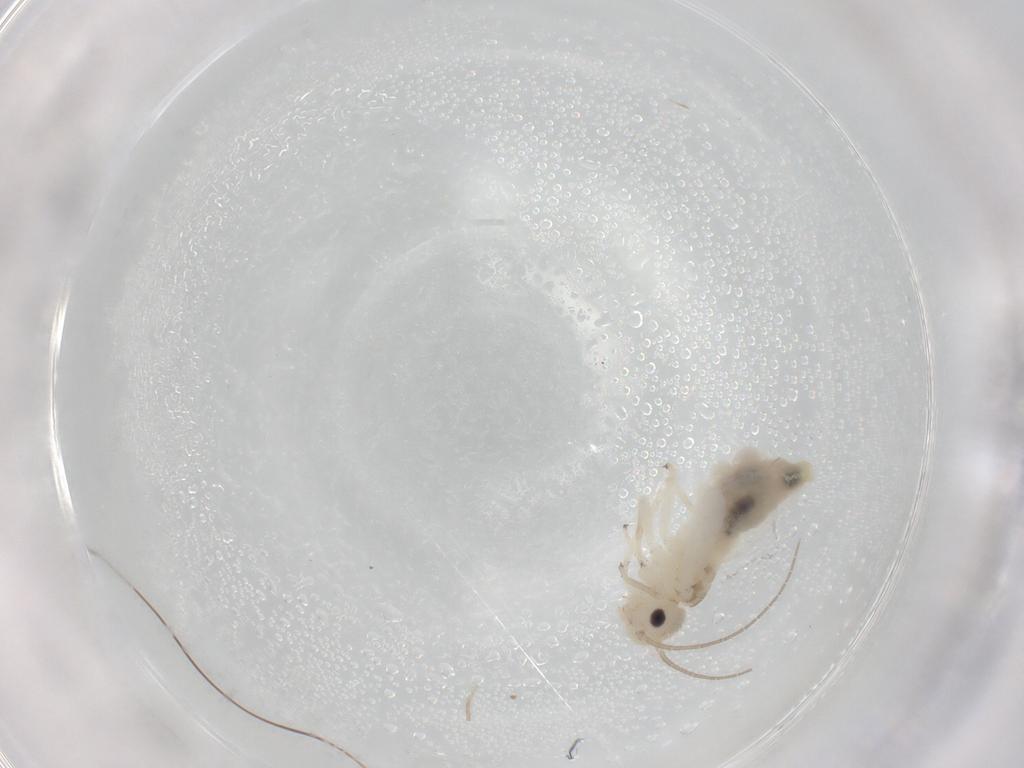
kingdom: Animalia
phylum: Arthropoda
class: Insecta
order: Psocodea
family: Caeciliusidae
